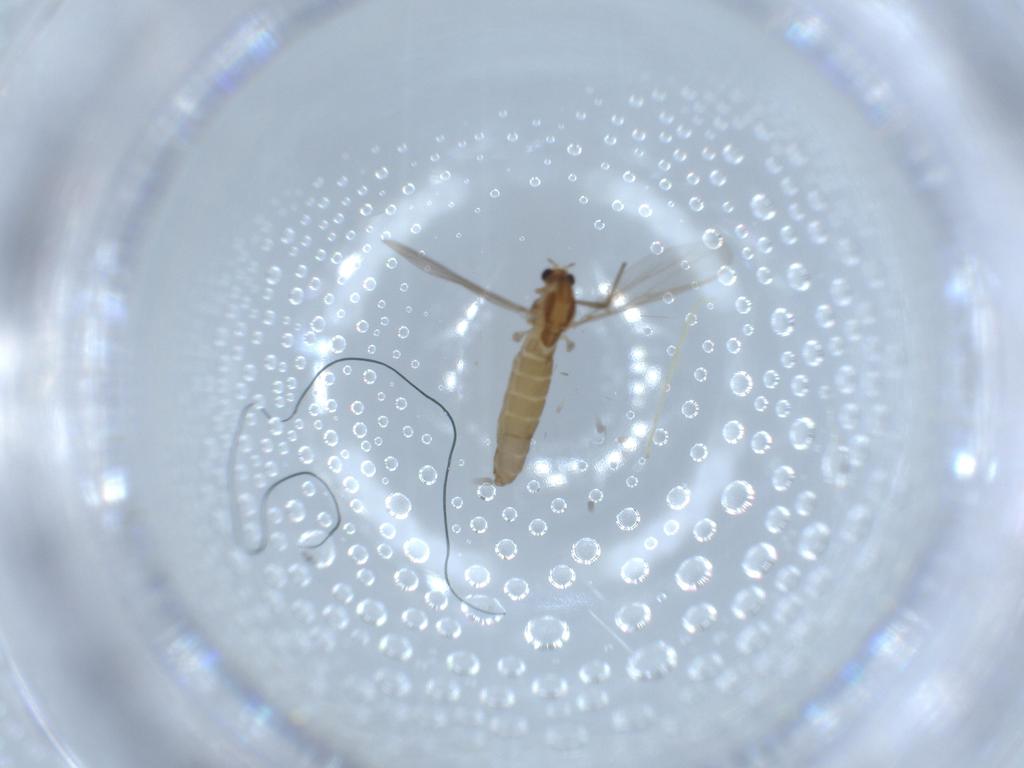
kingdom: Animalia
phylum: Arthropoda
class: Insecta
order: Diptera
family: Chironomidae
